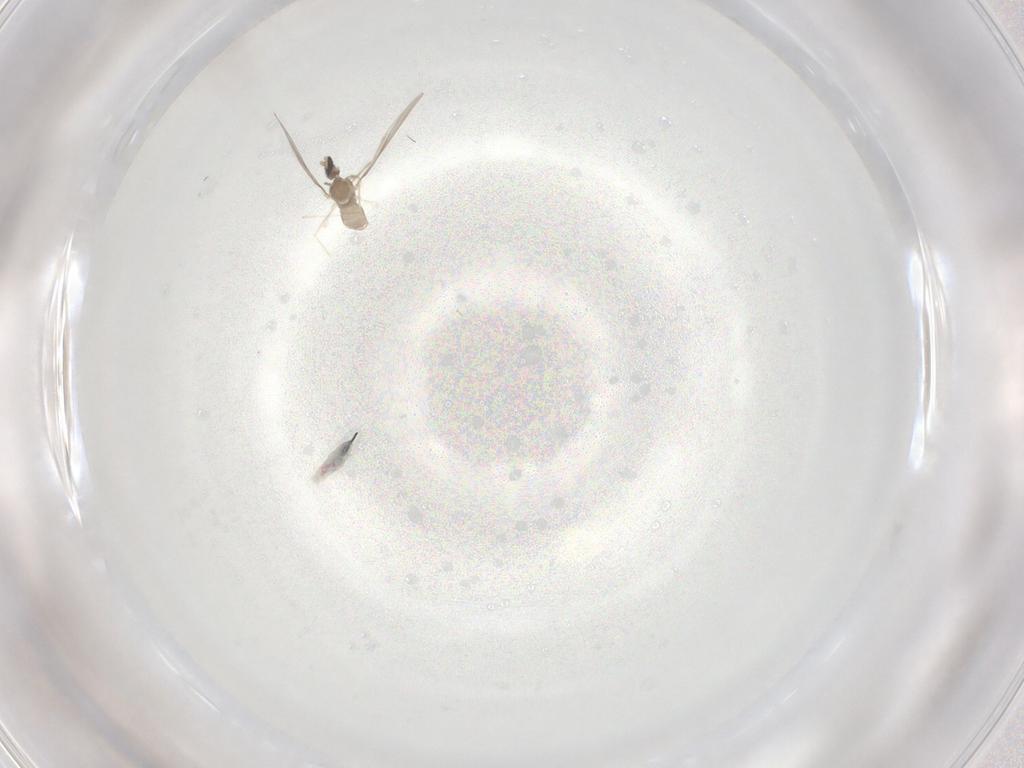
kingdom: Animalia
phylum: Arthropoda
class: Insecta
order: Diptera
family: Cecidomyiidae
